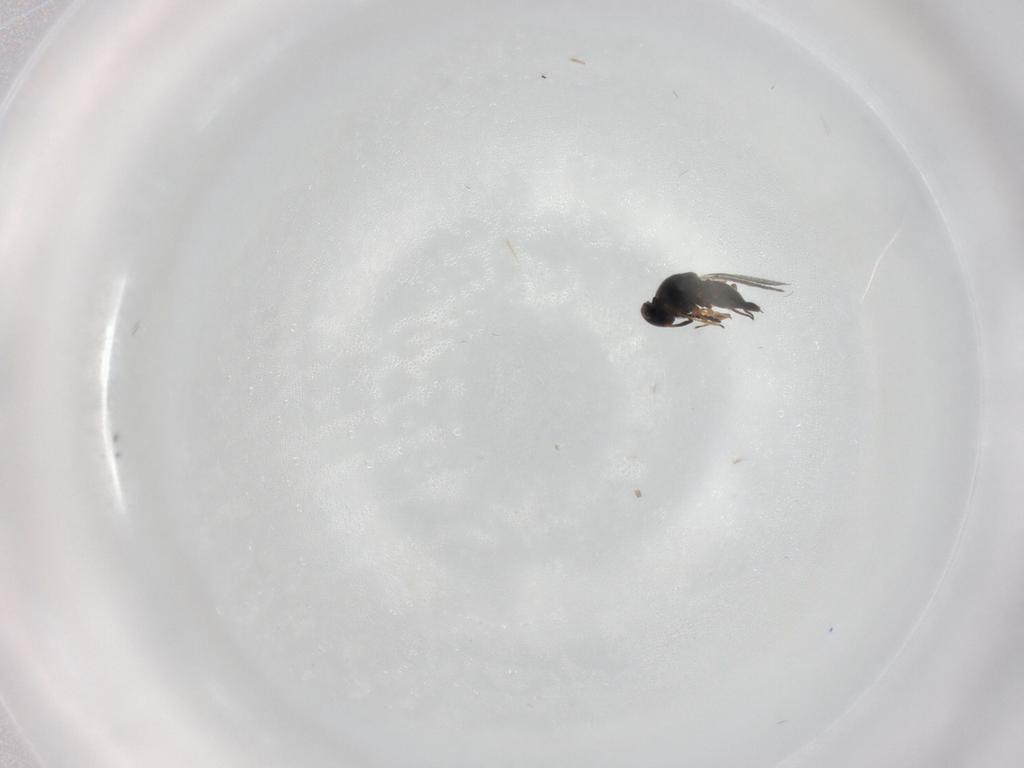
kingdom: Animalia
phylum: Arthropoda
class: Insecta
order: Hymenoptera
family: Platygastridae
